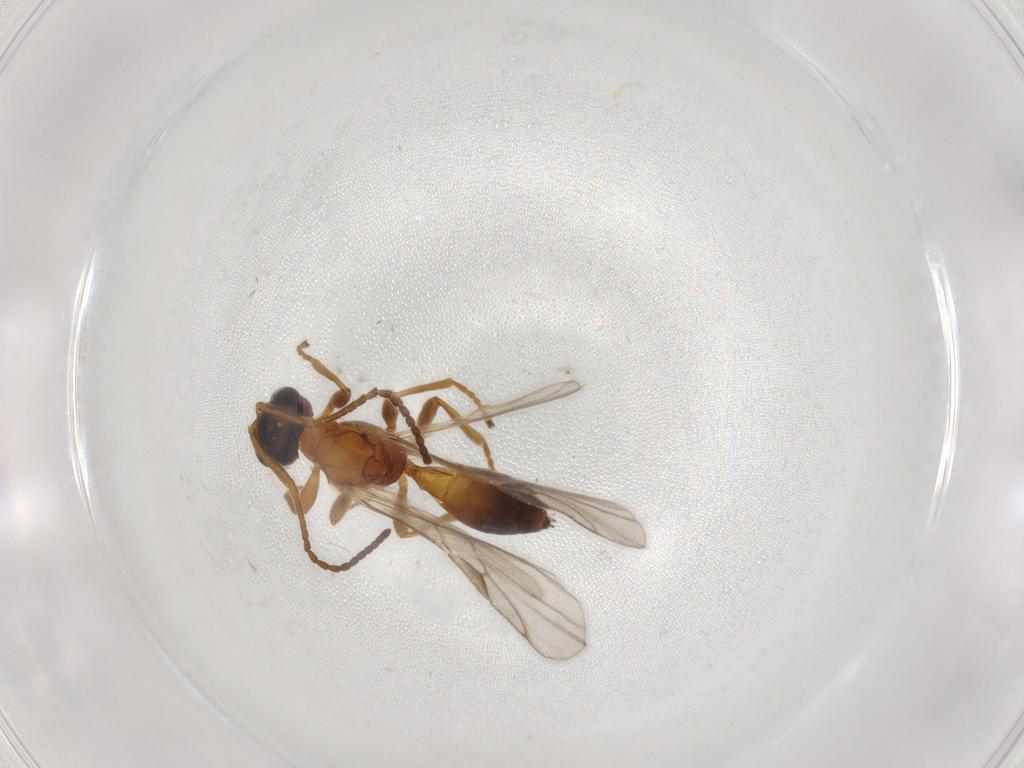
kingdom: Animalia
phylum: Arthropoda
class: Insecta
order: Hymenoptera
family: Braconidae
